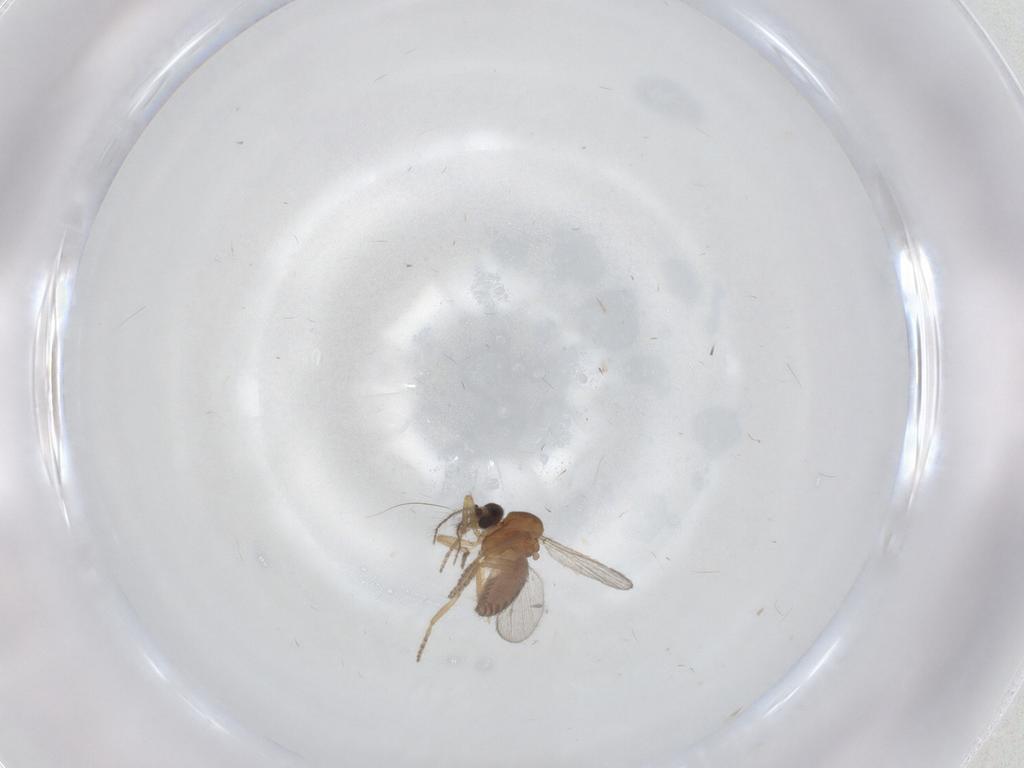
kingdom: Animalia
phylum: Arthropoda
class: Insecta
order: Diptera
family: Ceratopogonidae
